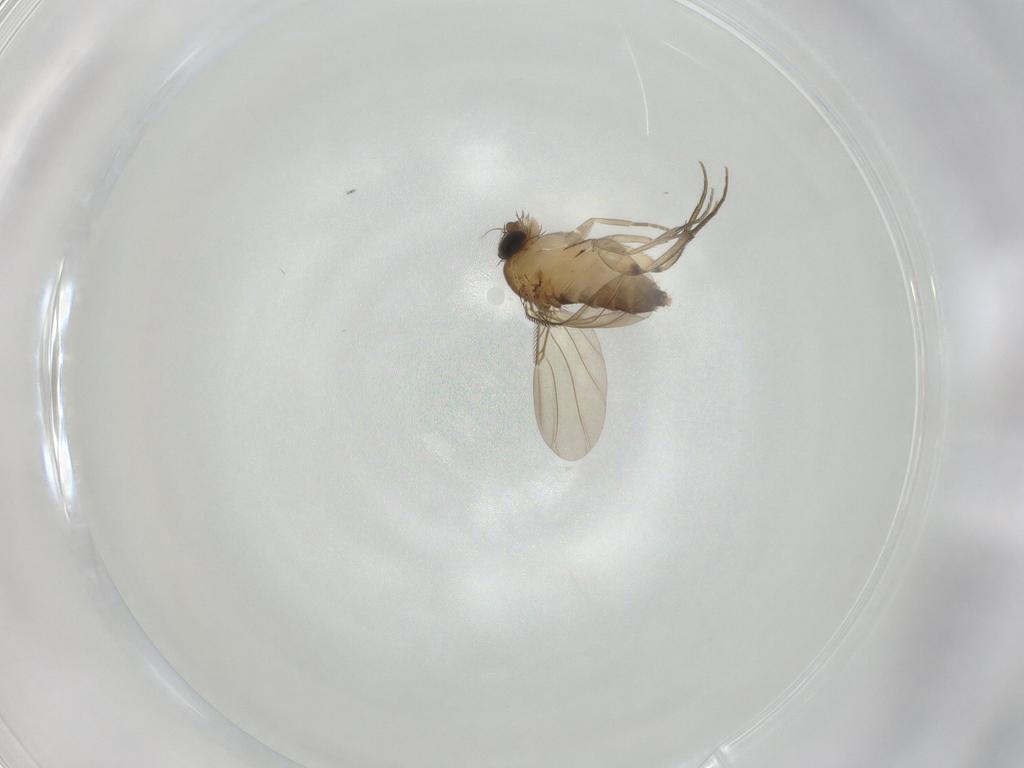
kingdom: Animalia
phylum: Arthropoda
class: Insecta
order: Diptera
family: Phoridae
